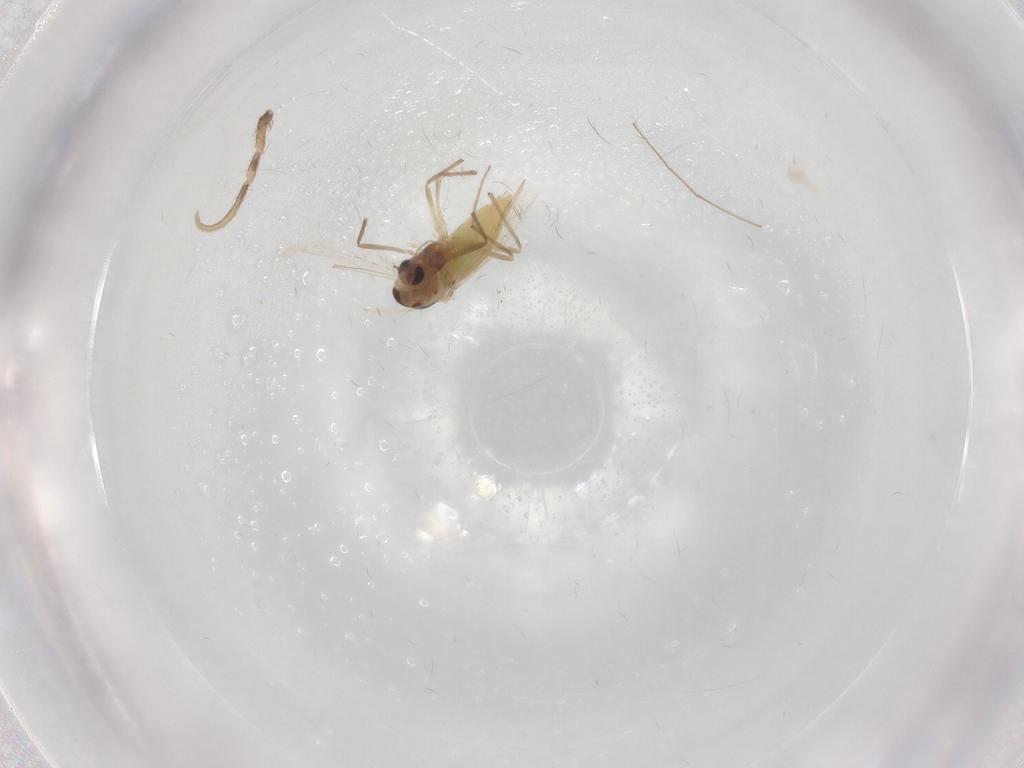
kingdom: Animalia
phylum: Arthropoda
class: Insecta
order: Diptera
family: Chironomidae
